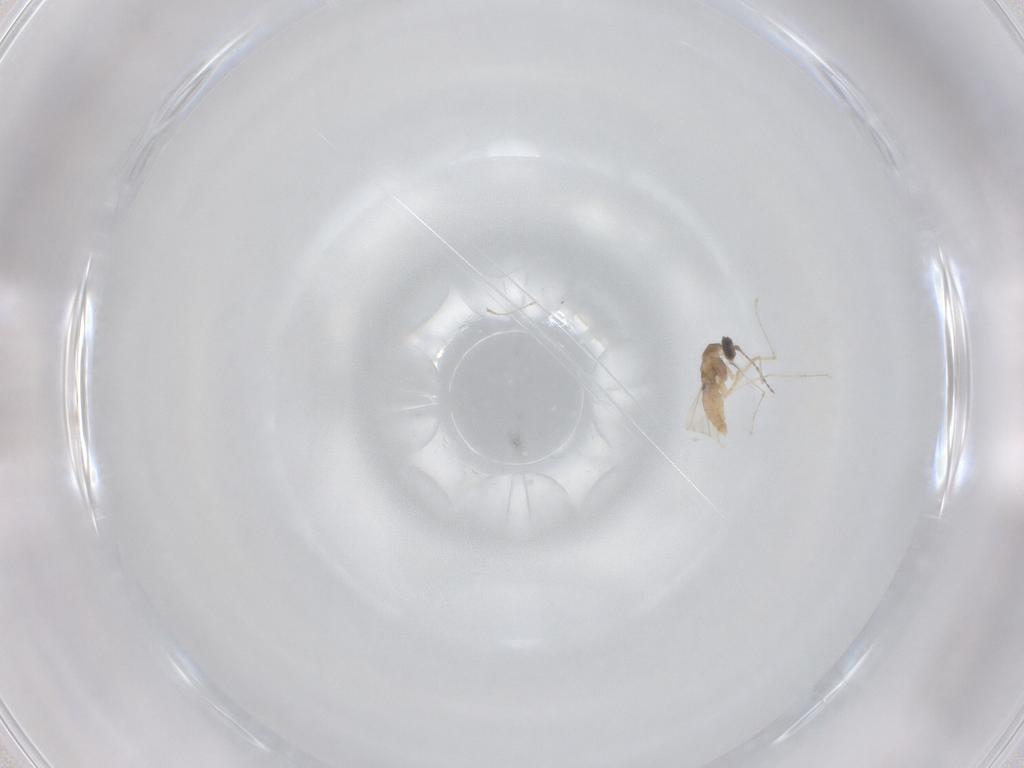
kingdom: Animalia
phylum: Arthropoda
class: Insecta
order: Diptera
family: Cecidomyiidae
